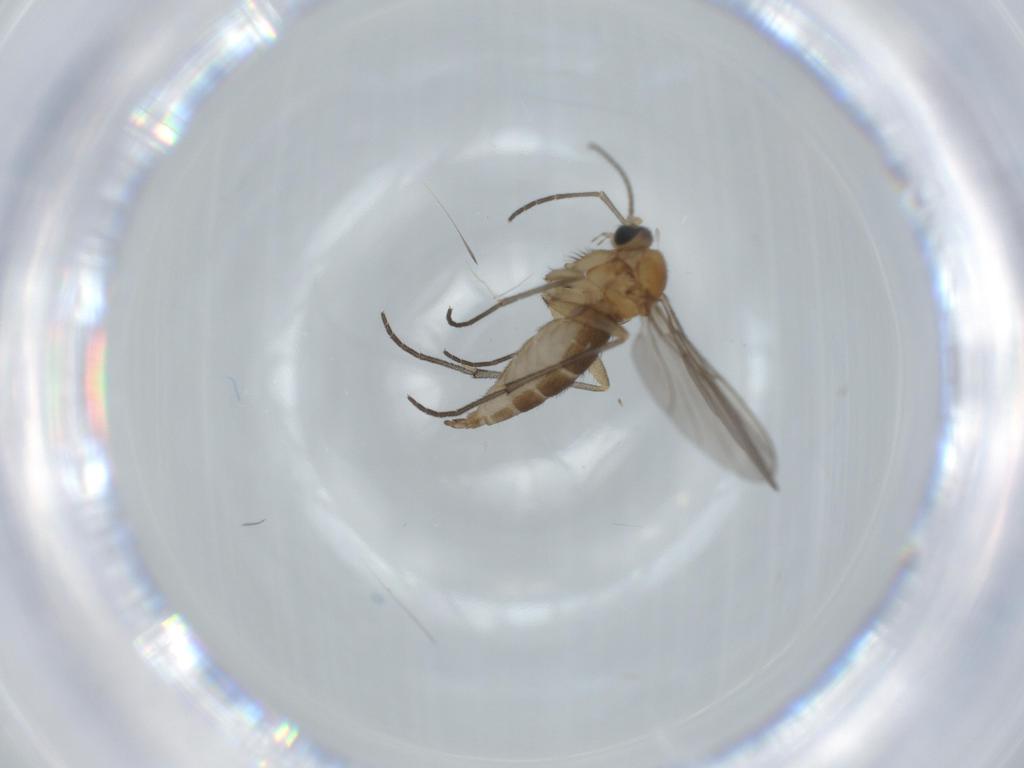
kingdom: Animalia
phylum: Arthropoda
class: Insecta
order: Diptera
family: Sciaridae
